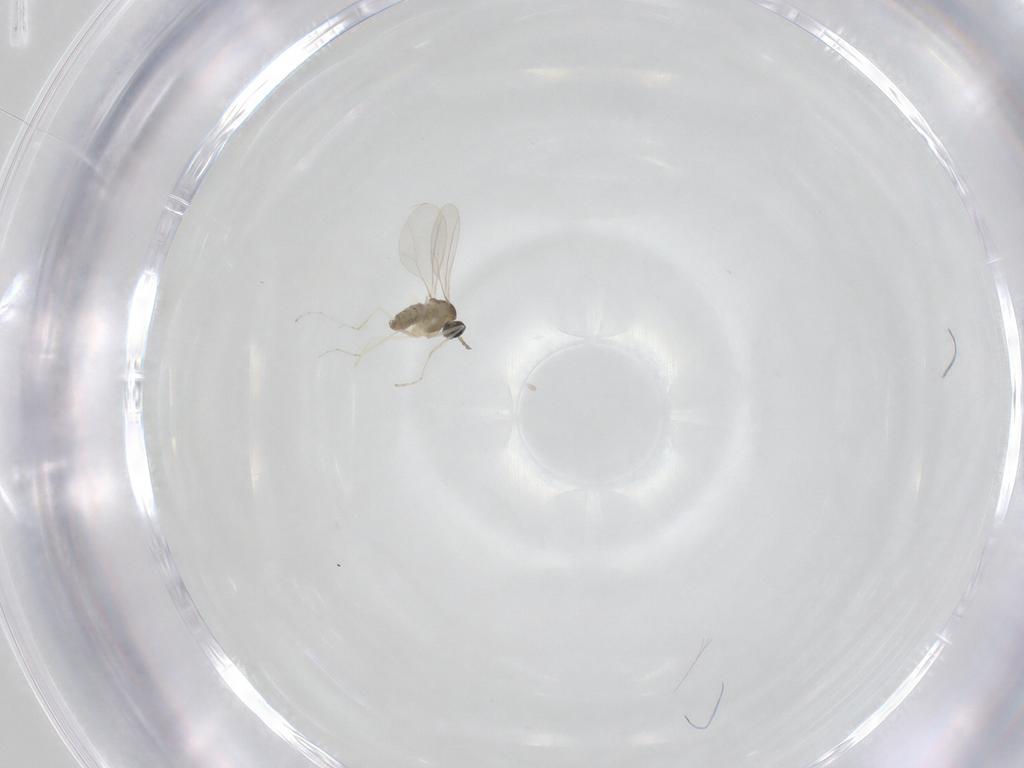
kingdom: Animalia
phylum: Arthropoda
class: Insecta
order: Diptera
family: Cecidomyiidae
